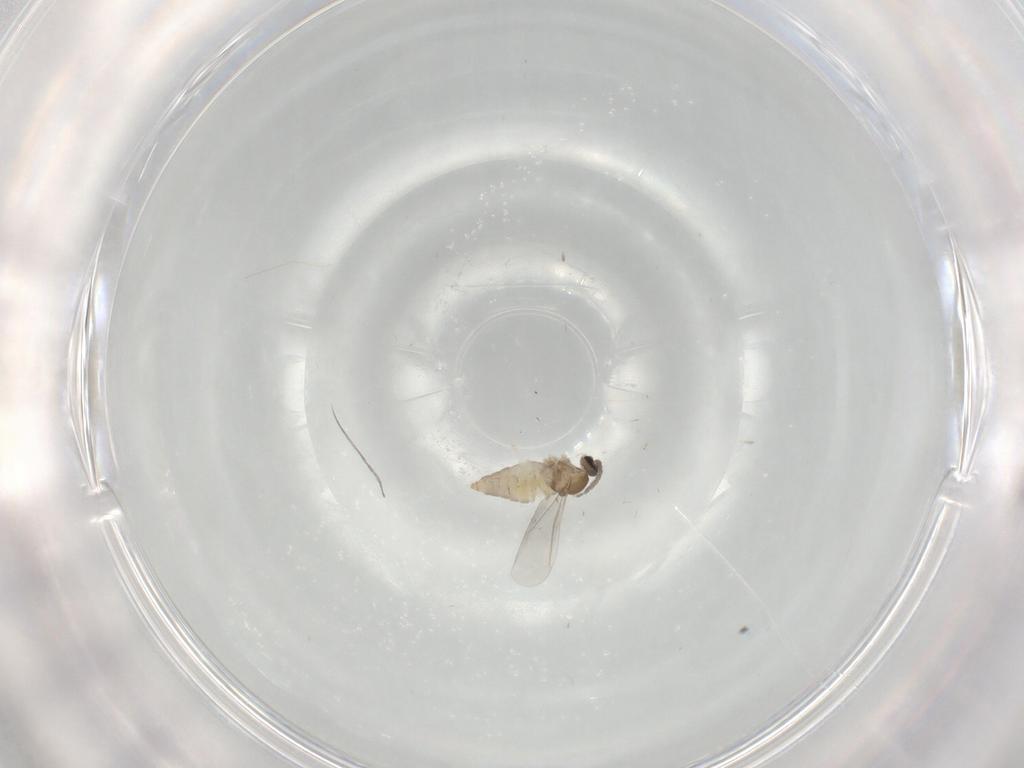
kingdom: Animalia
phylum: Arthropoda
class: Insecta
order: Diptera
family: Cecidomyiidae
